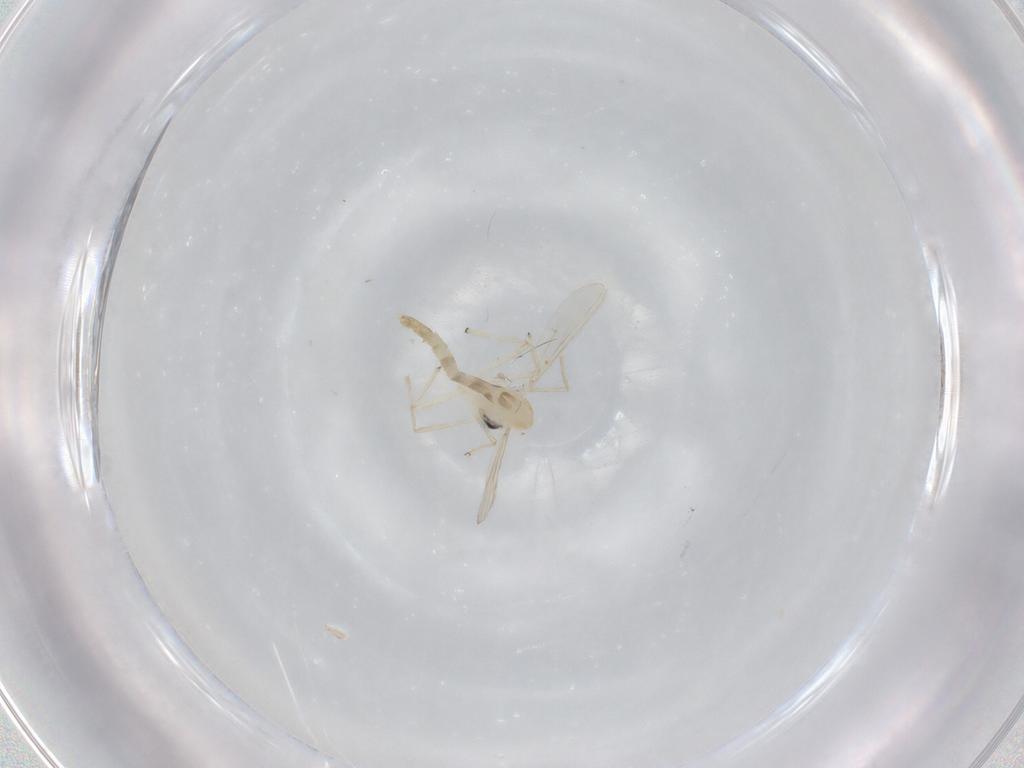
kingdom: Animalia
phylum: Arthropoda
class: Insecta
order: Diptera
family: Chironomidae
